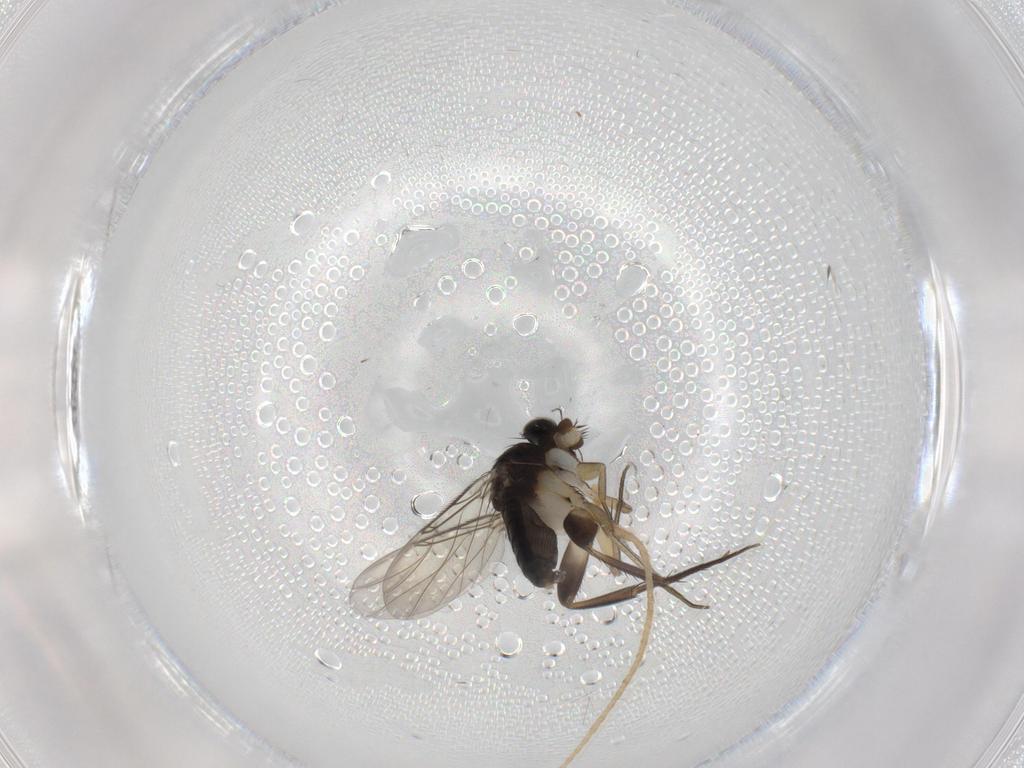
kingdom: Animalia
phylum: Arthropoda
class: Insecta
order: Diptera
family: Phoridae
